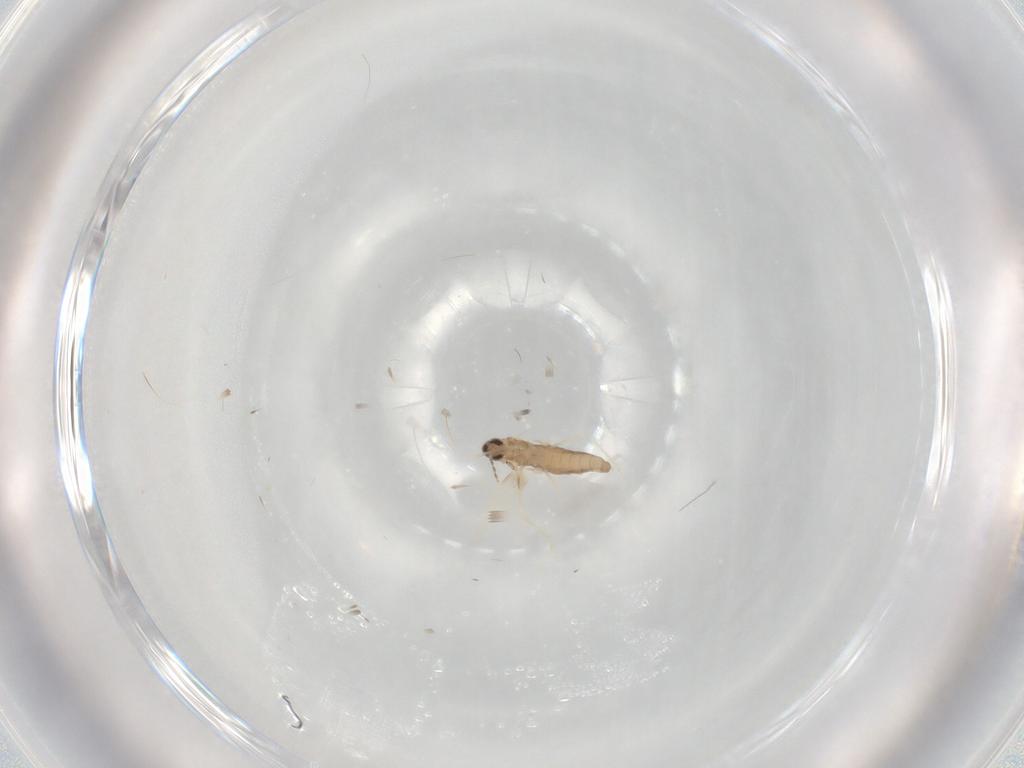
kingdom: Animalia
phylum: Arthropoda
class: Insecta
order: Diptera
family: Cecidomyiidae
